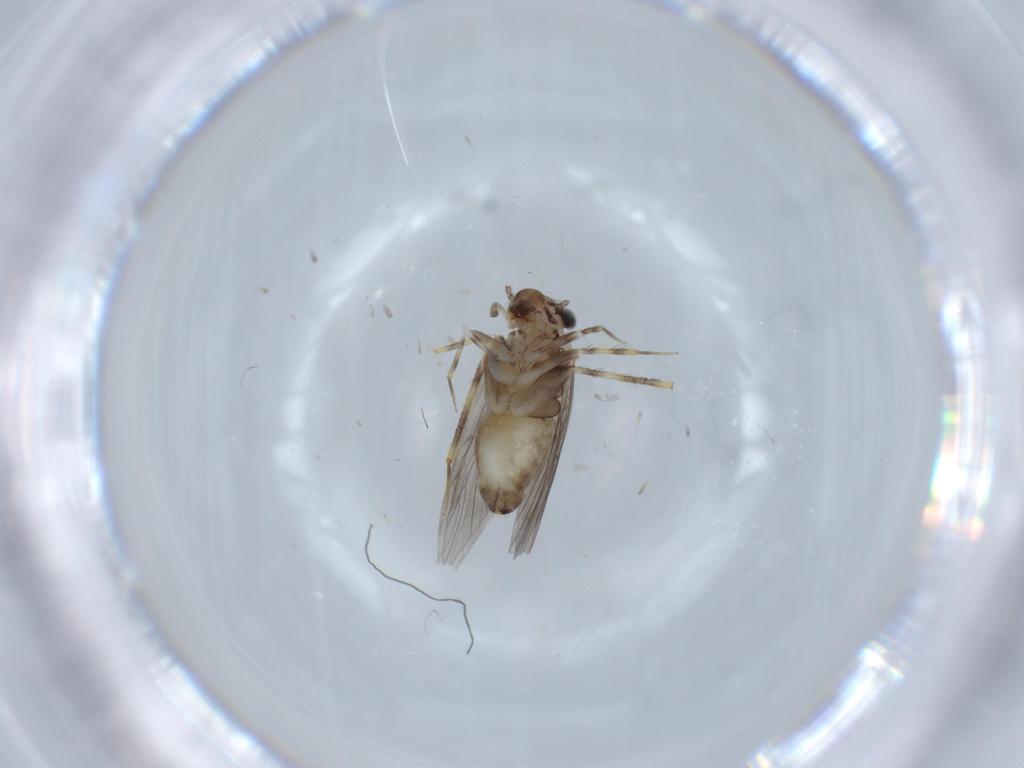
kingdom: Animalia
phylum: Arthropoda
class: Insecta
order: Psocodea
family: Lepidopsocidae
